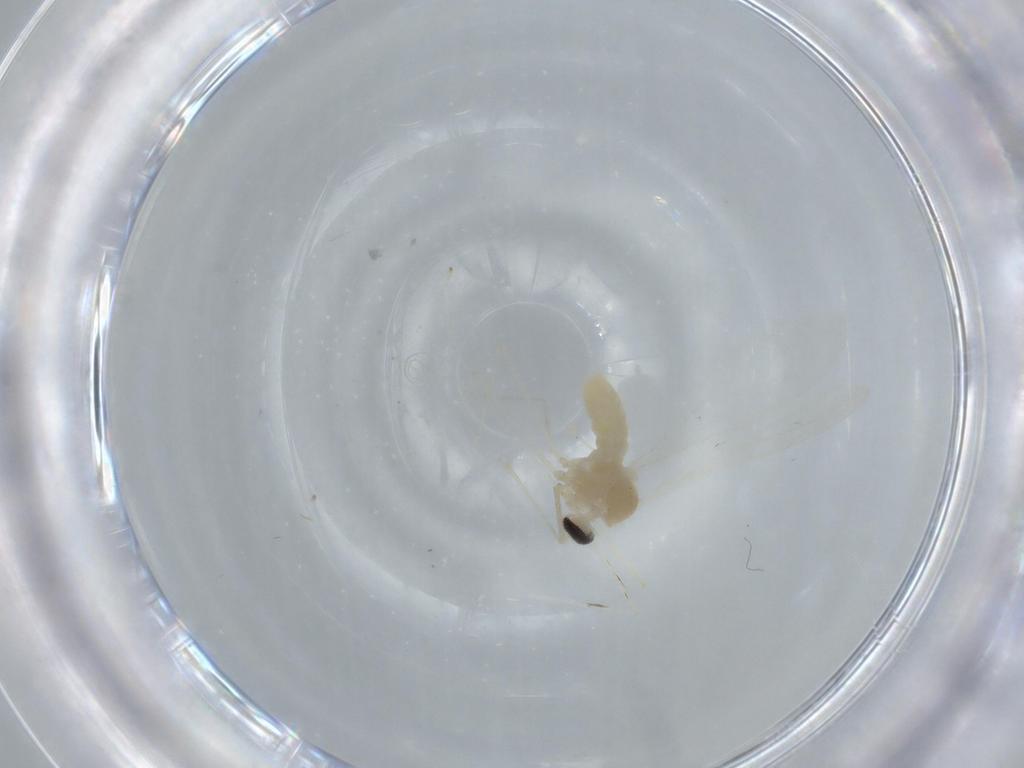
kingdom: Animalia
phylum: Arthropoda
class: Insecta
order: Diptera
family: Cecidomyiidae
